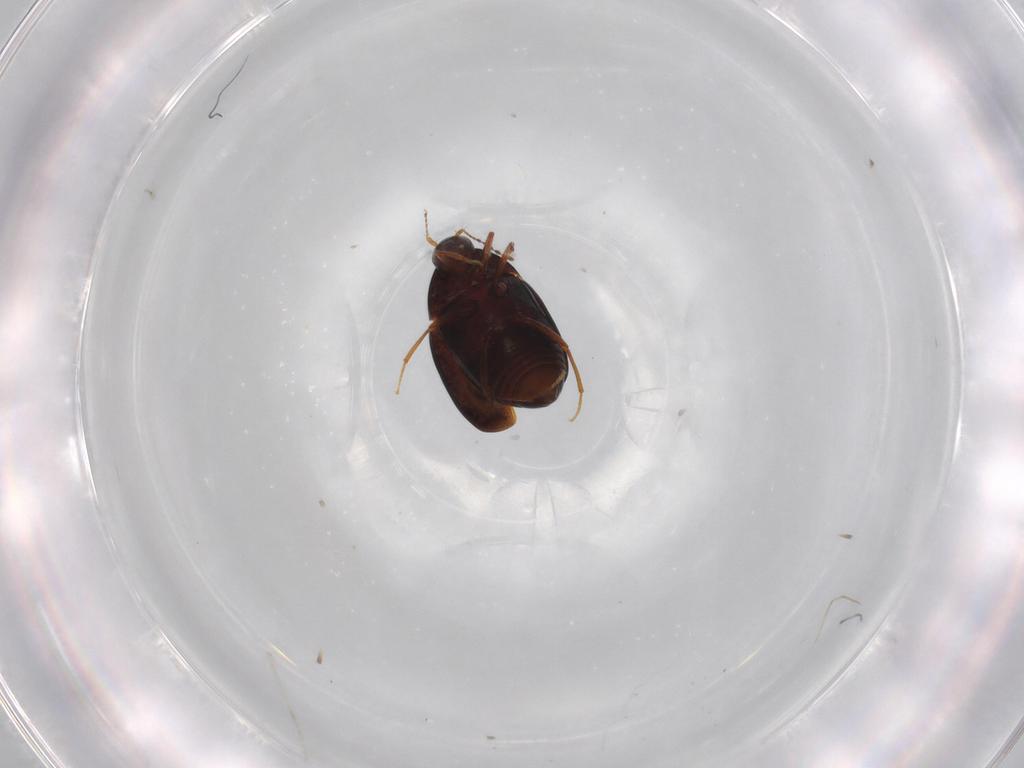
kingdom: Animalia
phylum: Arthropoda
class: Insecta
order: Coleoptera
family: Staphylinidae
